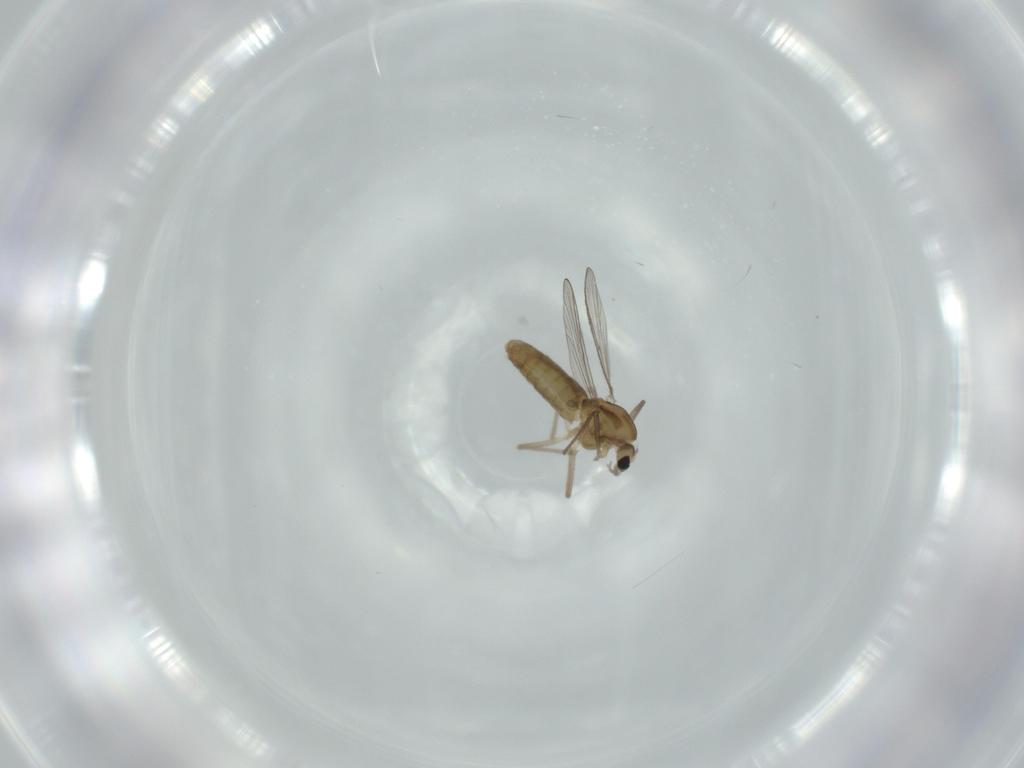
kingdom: Animalia
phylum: Arthropoda
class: Insecta
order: Diptera
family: Chironomidae
